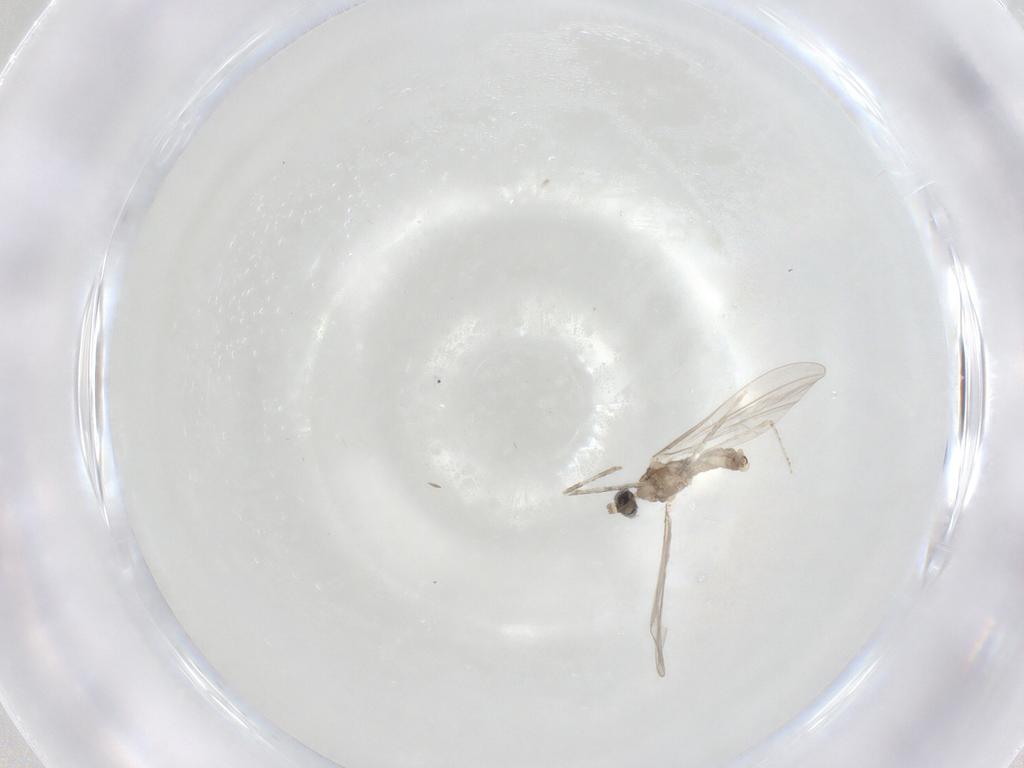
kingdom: Animalia
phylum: Arthropoda
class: Insecta
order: Diptera
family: Cecidomyiidae
